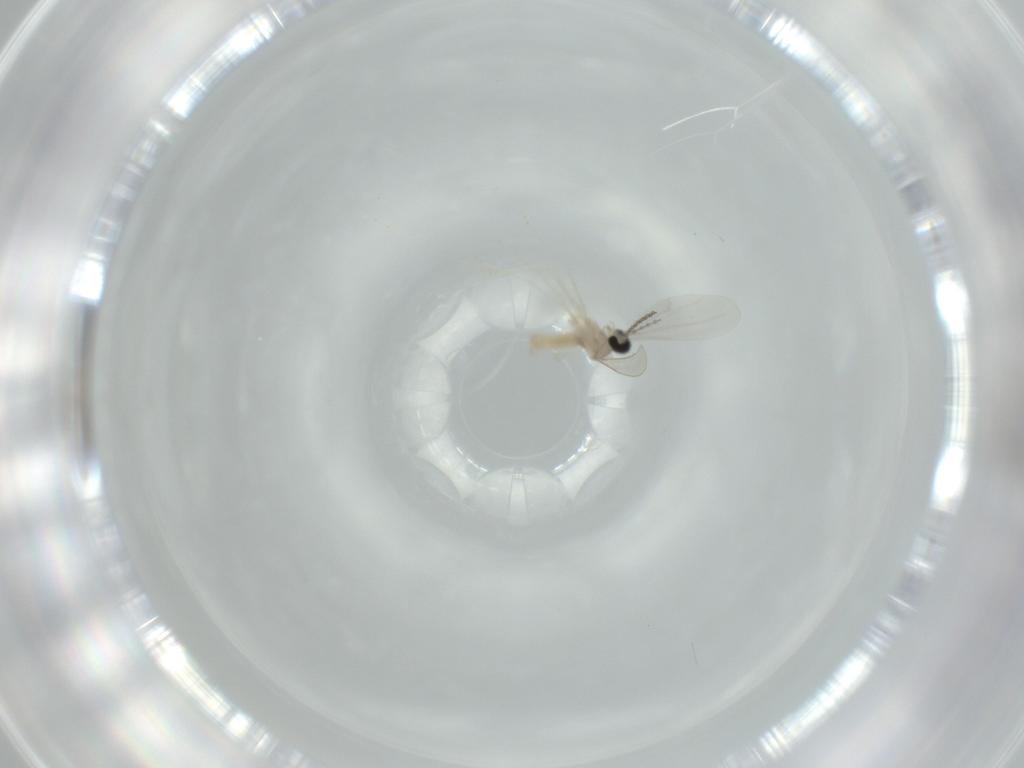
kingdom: Animalia
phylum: Arthropoda
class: Insecta
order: Diptera
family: Cecidomyiidae
